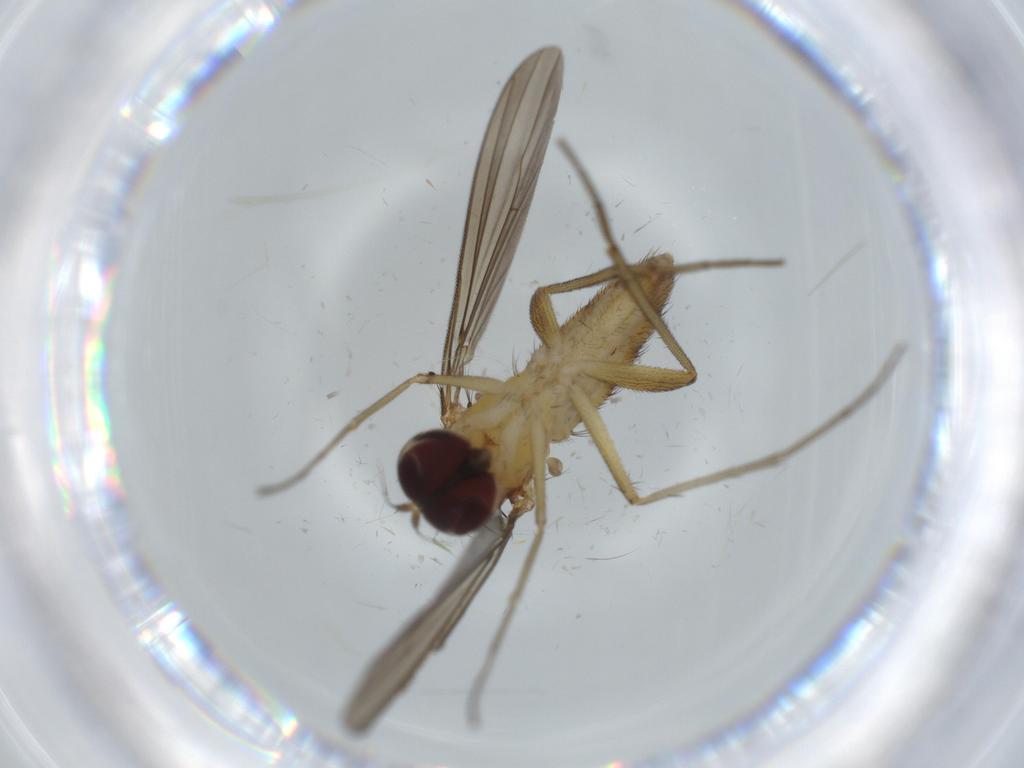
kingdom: Animalia
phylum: Arthropoda
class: Insecta
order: Diptera
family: Dolichopodidae
